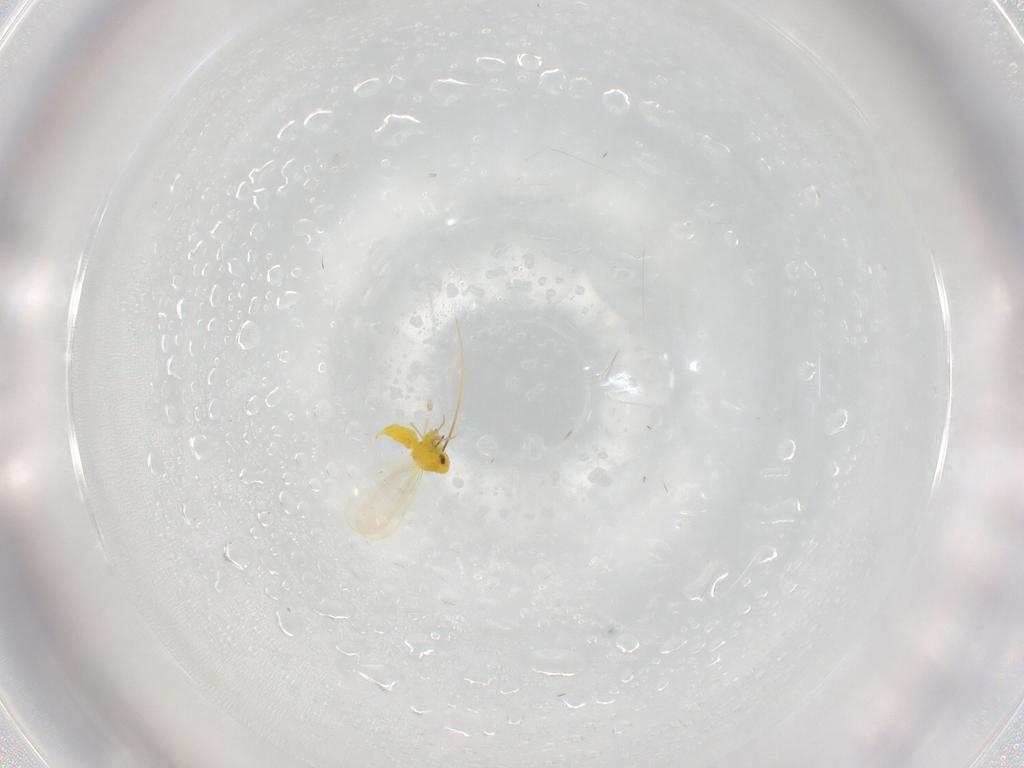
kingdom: Animalia
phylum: Arthropoda
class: Insecta
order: Hemiptera
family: Aleyrodidae
